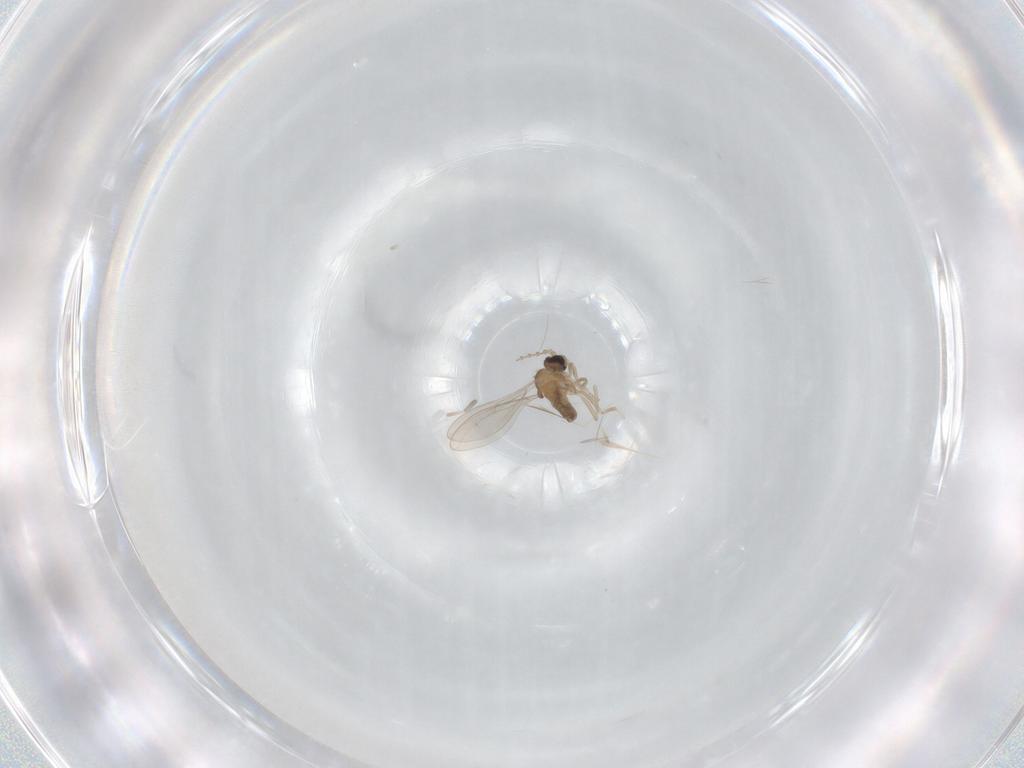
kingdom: Animalia
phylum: Arthropoda
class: Insecta
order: Diptera
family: Cecidomyiidae
